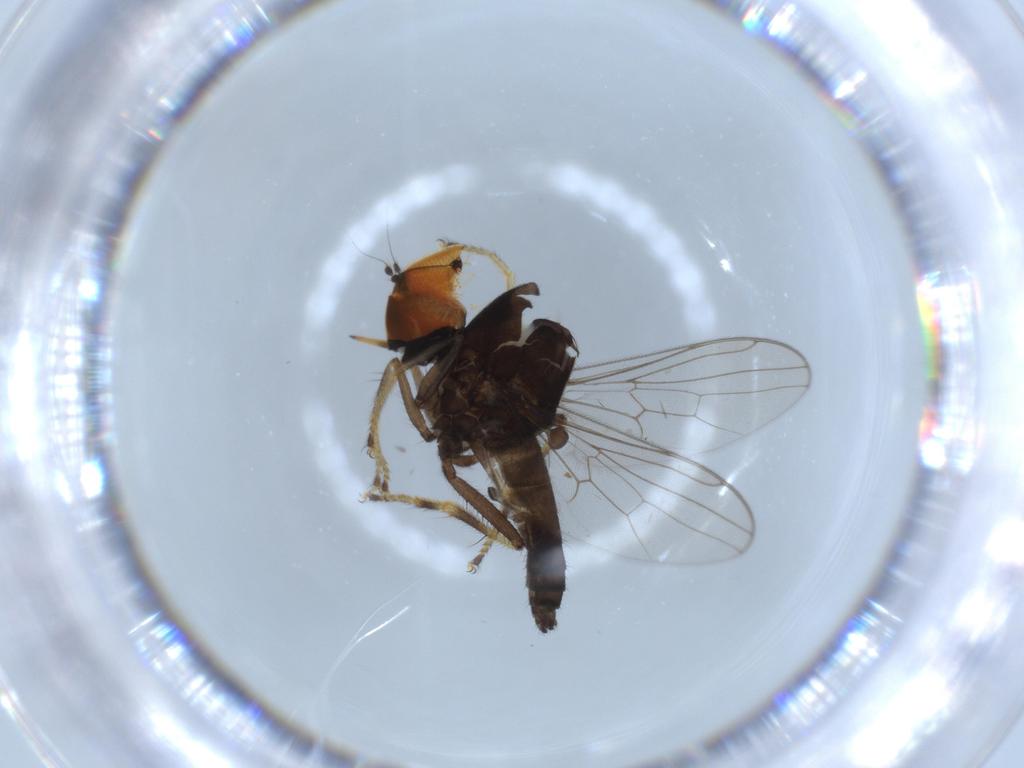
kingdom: Animalia
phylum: Arthropoda
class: Insecta
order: Diptera
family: Hybotidae
